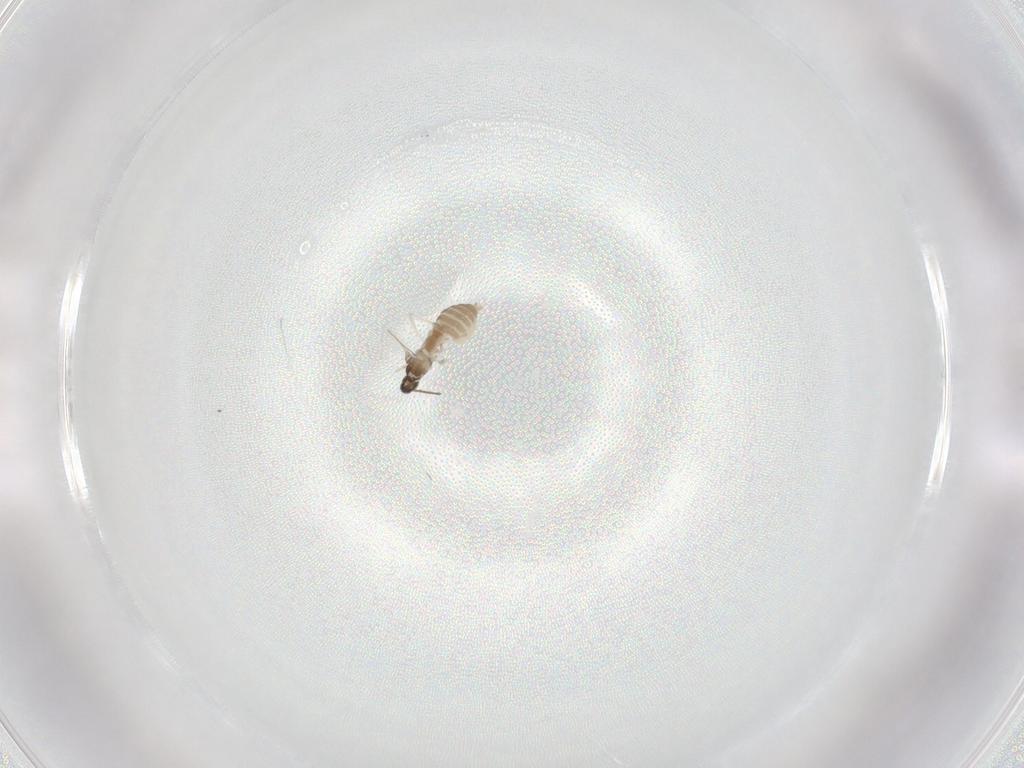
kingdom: Animalia
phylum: Arthropoda
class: Insecta
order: Diptera
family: Cecidomyiidae
